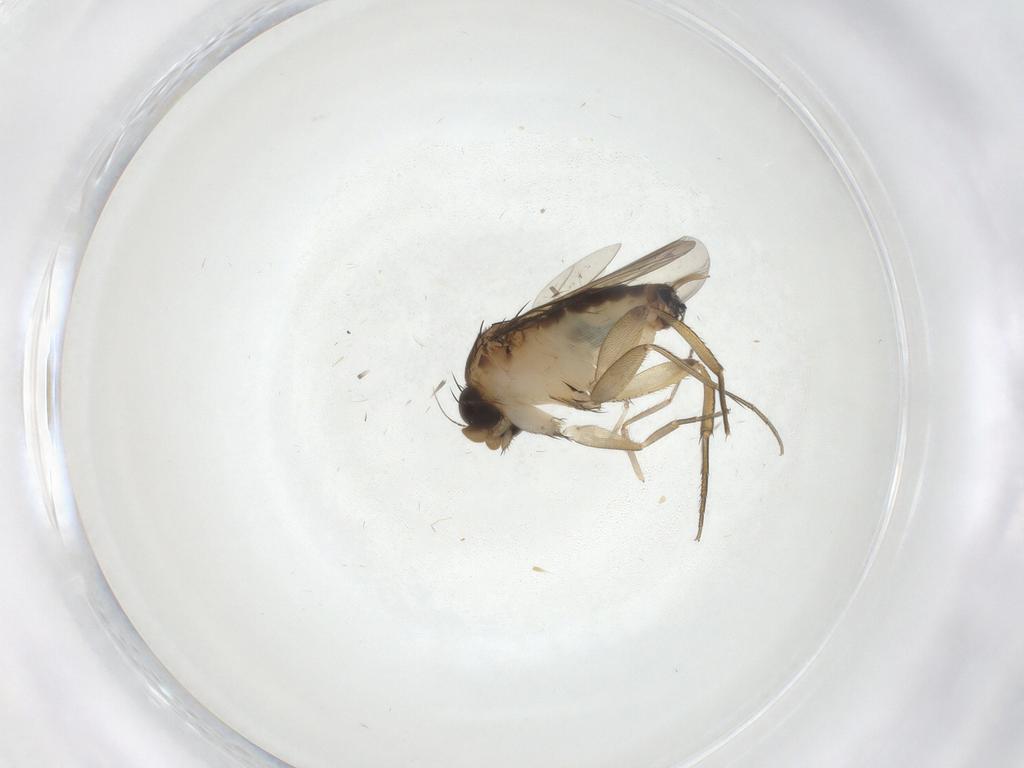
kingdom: Animalia
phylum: Arthropoda
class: Insecta
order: Diptera
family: Phoridae
